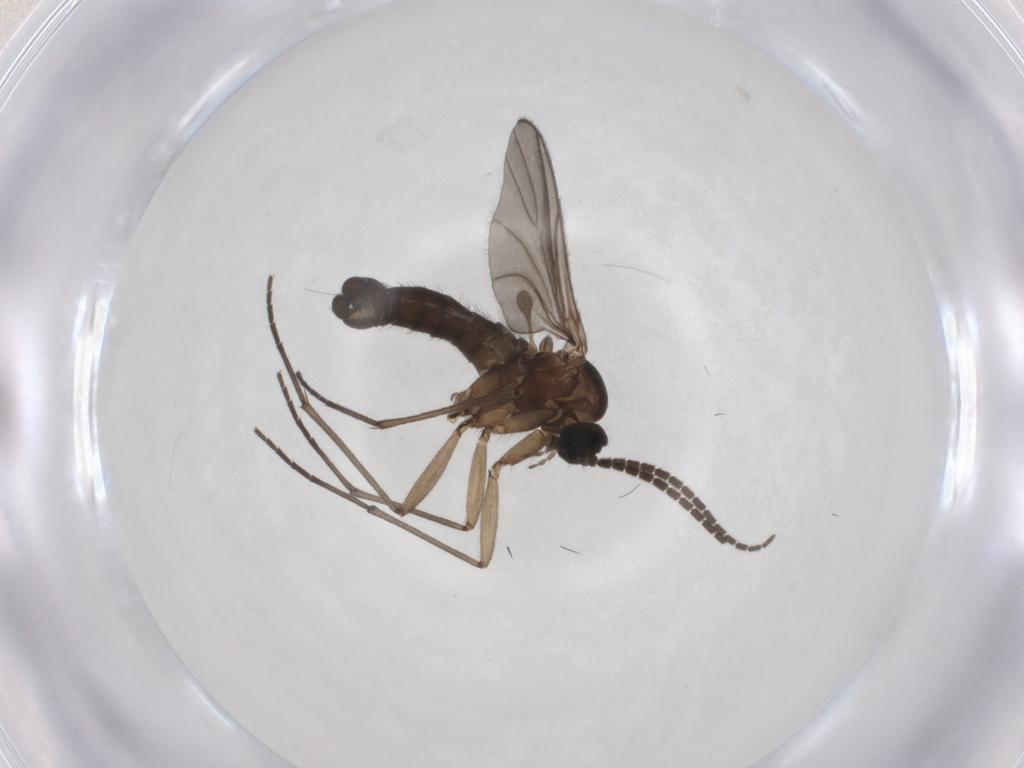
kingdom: Animalia
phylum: Arthropoda
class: Insecta
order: Diptera
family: Sciaridae
